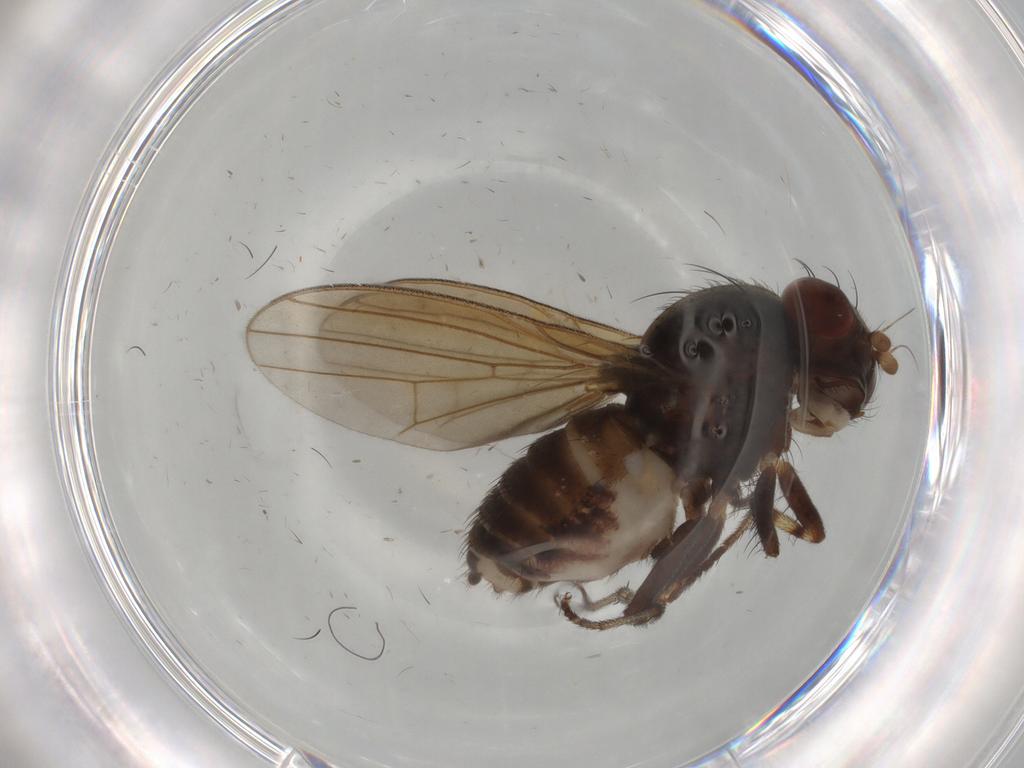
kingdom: Animalia
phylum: Arthropoda
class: Insecta
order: Diptera
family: Lauxaniidae
